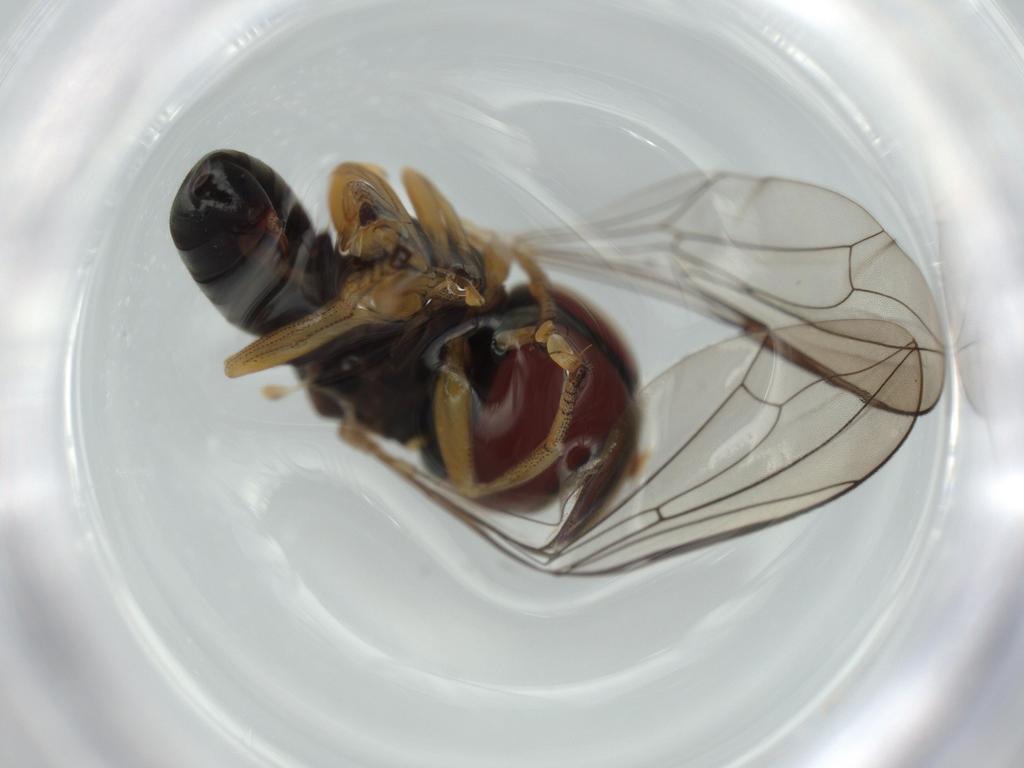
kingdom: Animalia
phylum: Arthropoda
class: Insecta
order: Diptera
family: Pipunculidae
